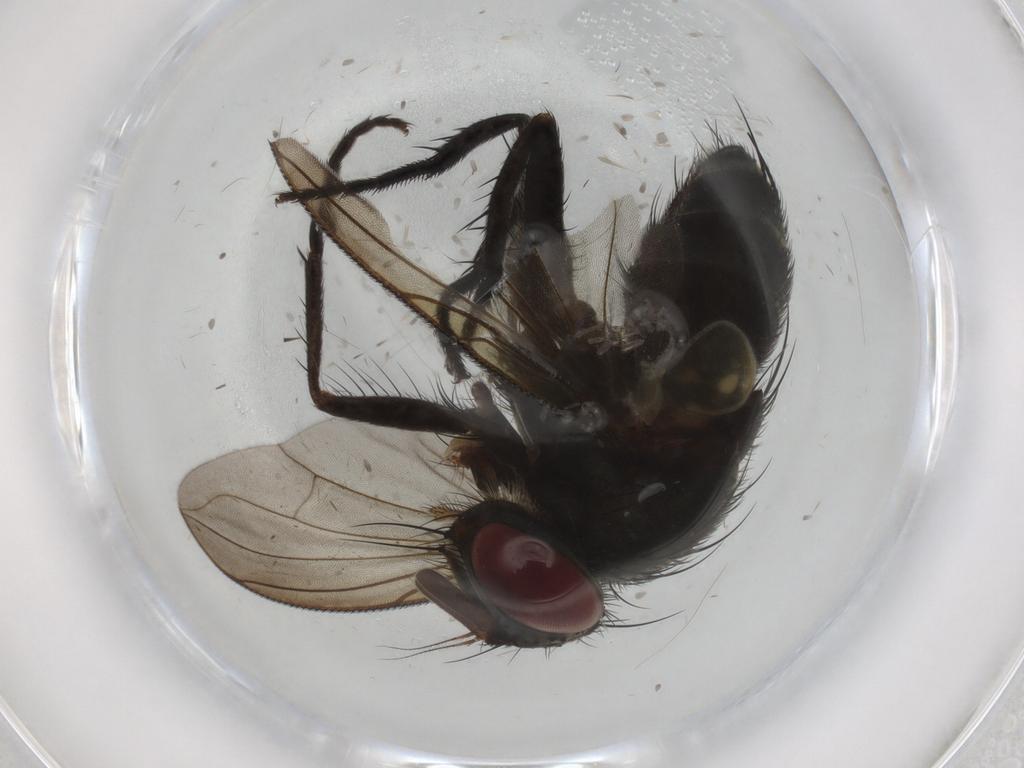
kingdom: Animalia
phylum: Arthropoda
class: Insecta
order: Diptera
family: Tachinidae
